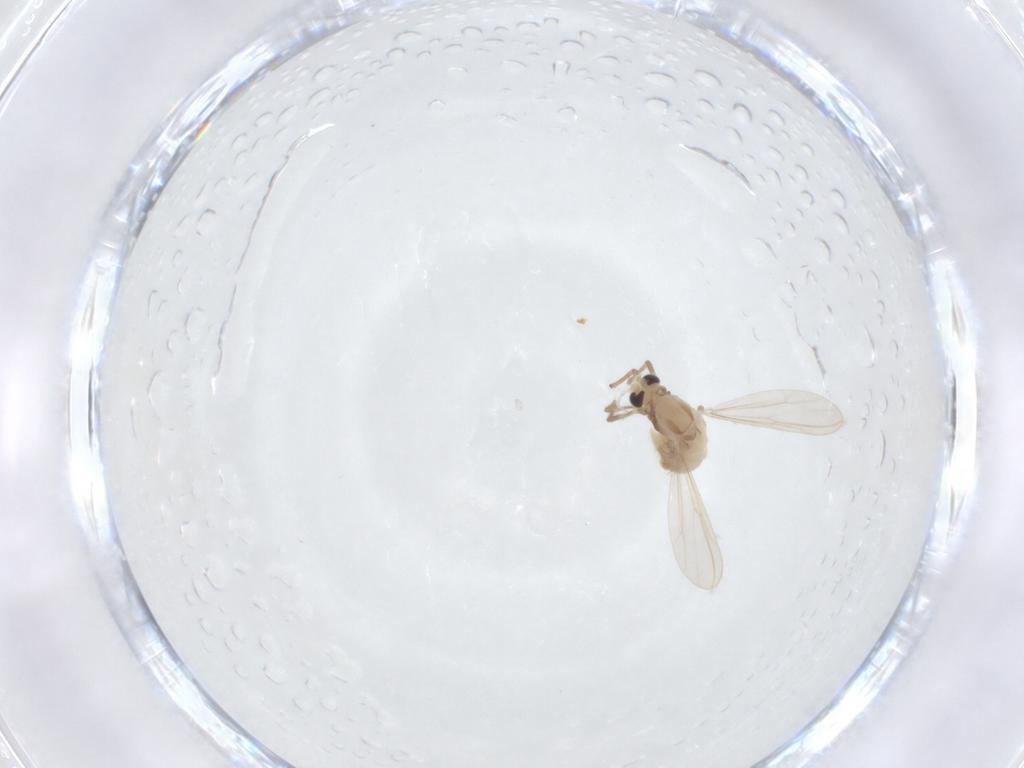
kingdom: Animalia
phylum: Arthropoda
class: Insecta
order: Diptera
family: Chironomidae
